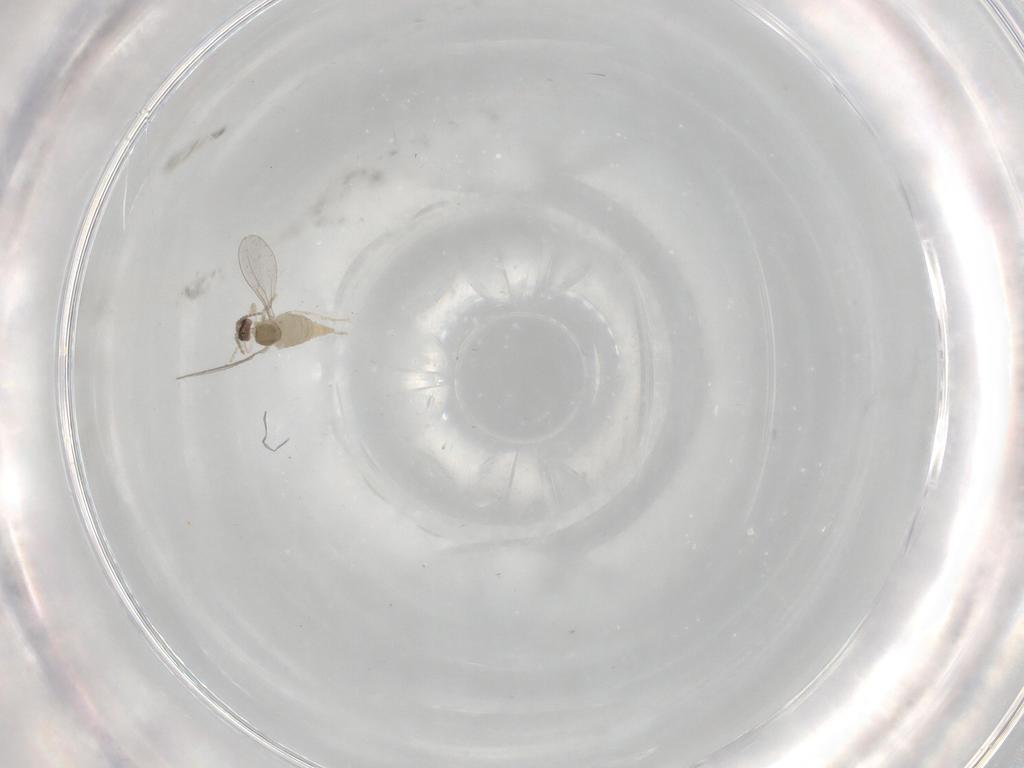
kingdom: Animalia
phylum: Arthropoda
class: Insecta
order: Diptera
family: Cecidomyiidae
